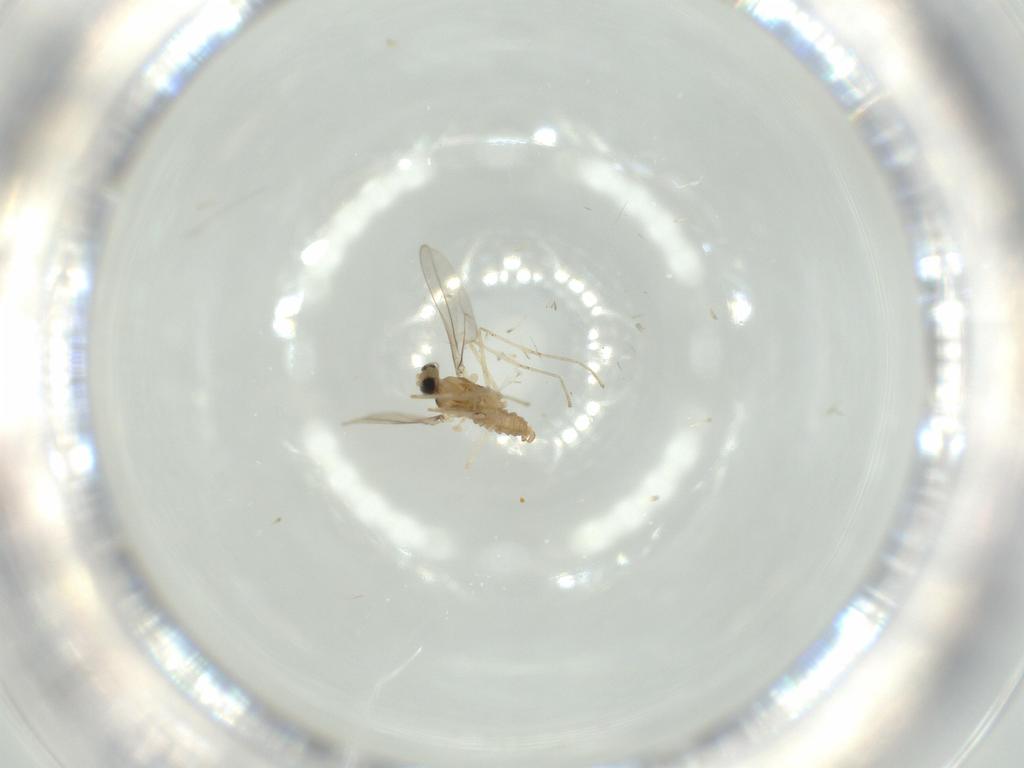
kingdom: Animalia
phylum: Arthropoda
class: Insecta
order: Diptera
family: Cecidomyiidae
